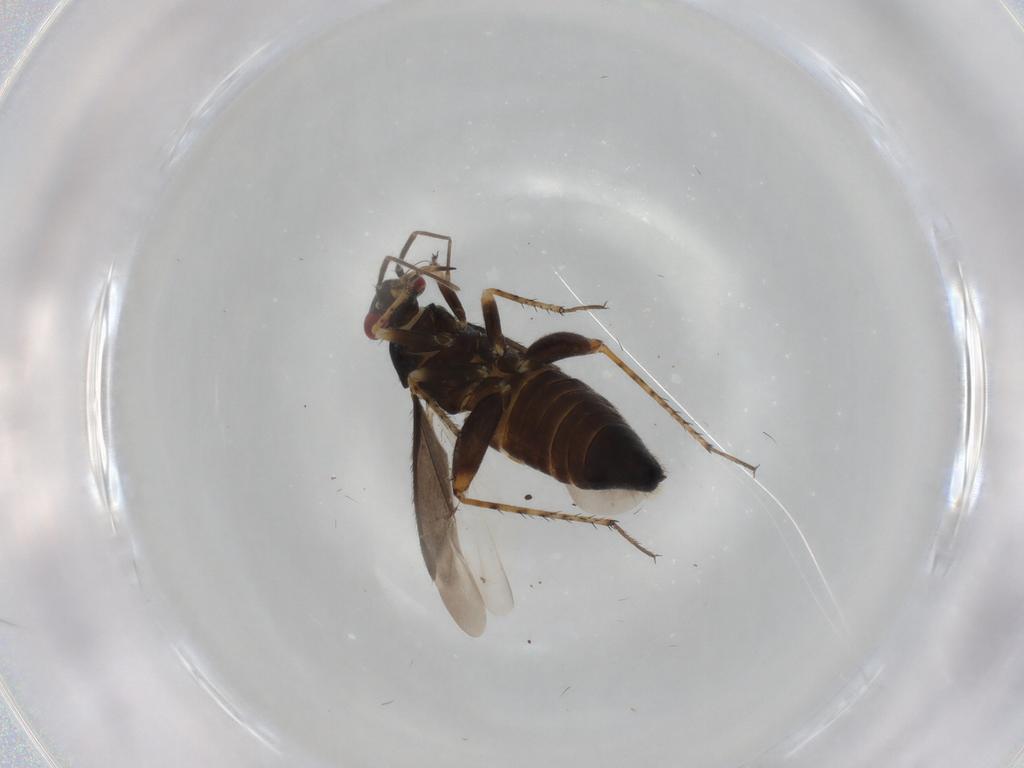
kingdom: Animalia
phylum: Arthropoda
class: Insecta
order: Hemiptera
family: Miridae
